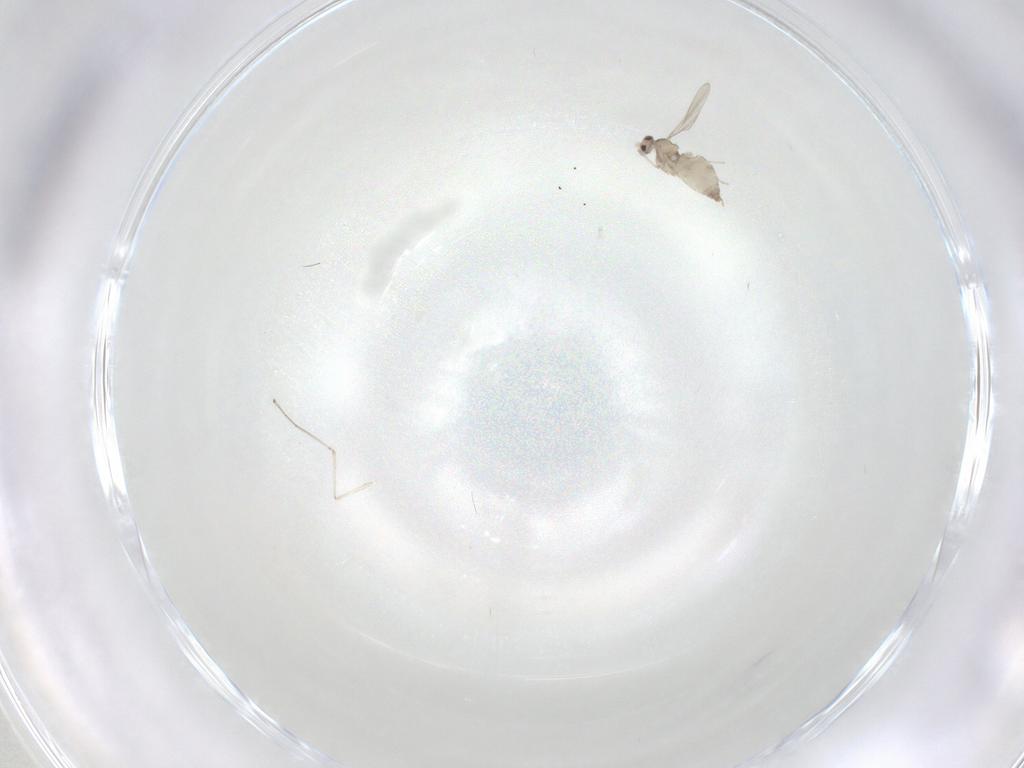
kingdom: Animalia
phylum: Arthropoda
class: Insecta
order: Diptera
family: Cecidomyiidae
